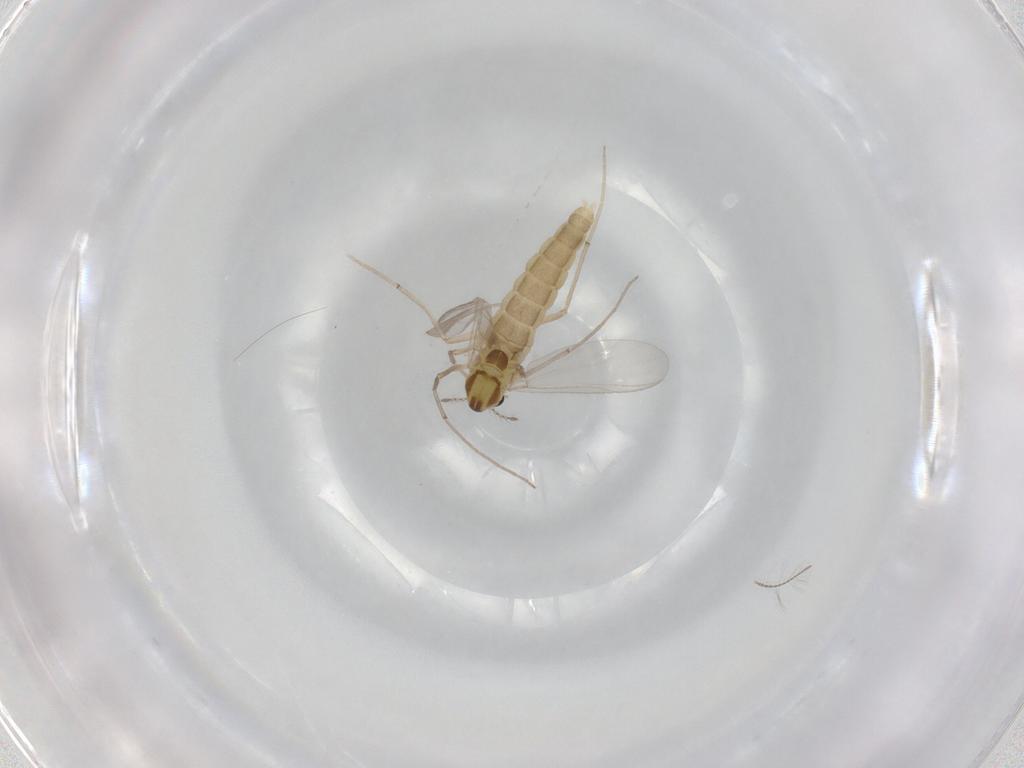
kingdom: Animalia
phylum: Arthropoda
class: Insecta
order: Diptera
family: Chironomidae
